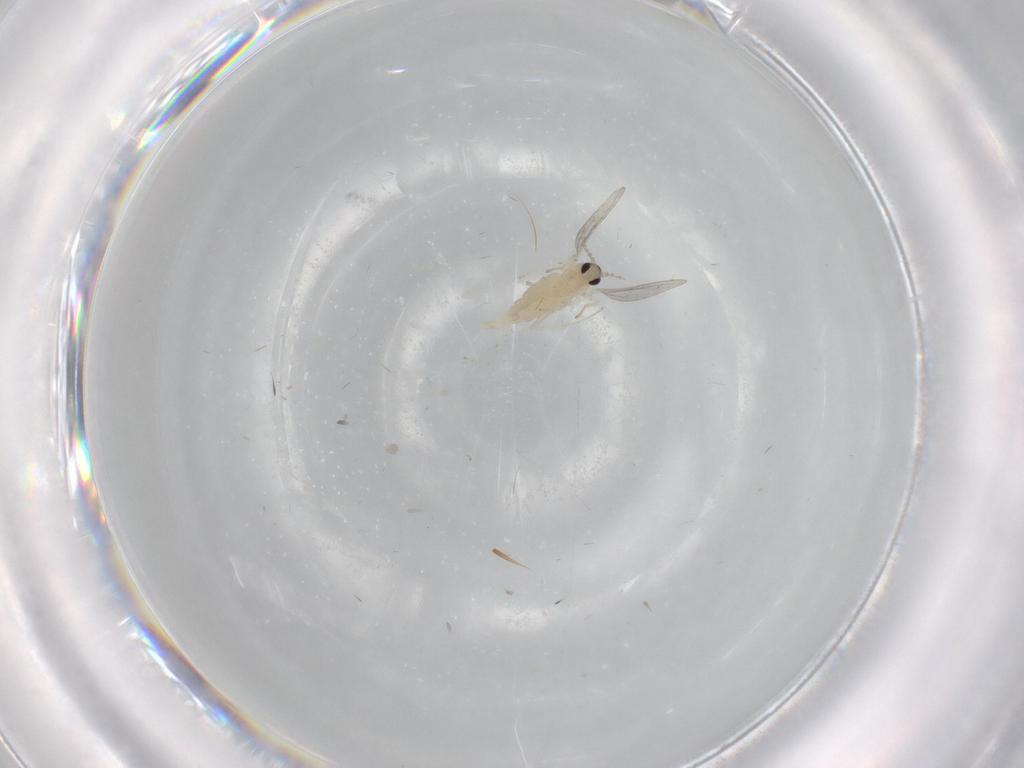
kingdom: Animalia
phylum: Arthropoda
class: Insecta
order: Diptera
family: Cecidomyiidae
